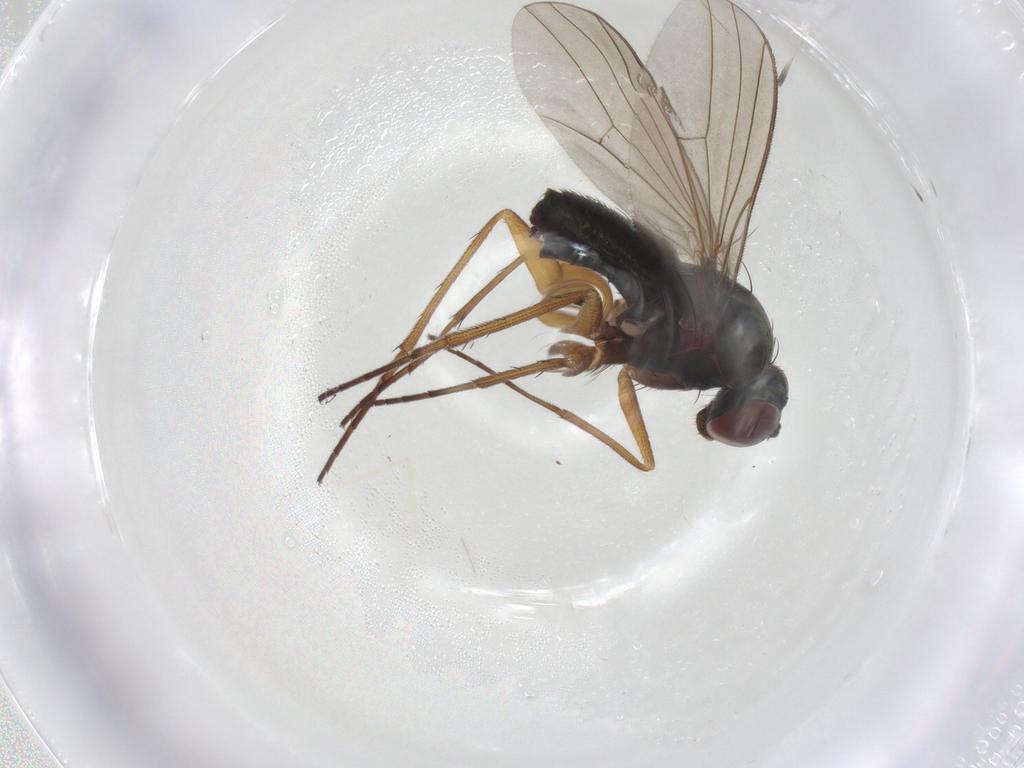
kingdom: Animalia
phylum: Arthropoda
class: Insecta
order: Diptera
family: Dolichopodidae
